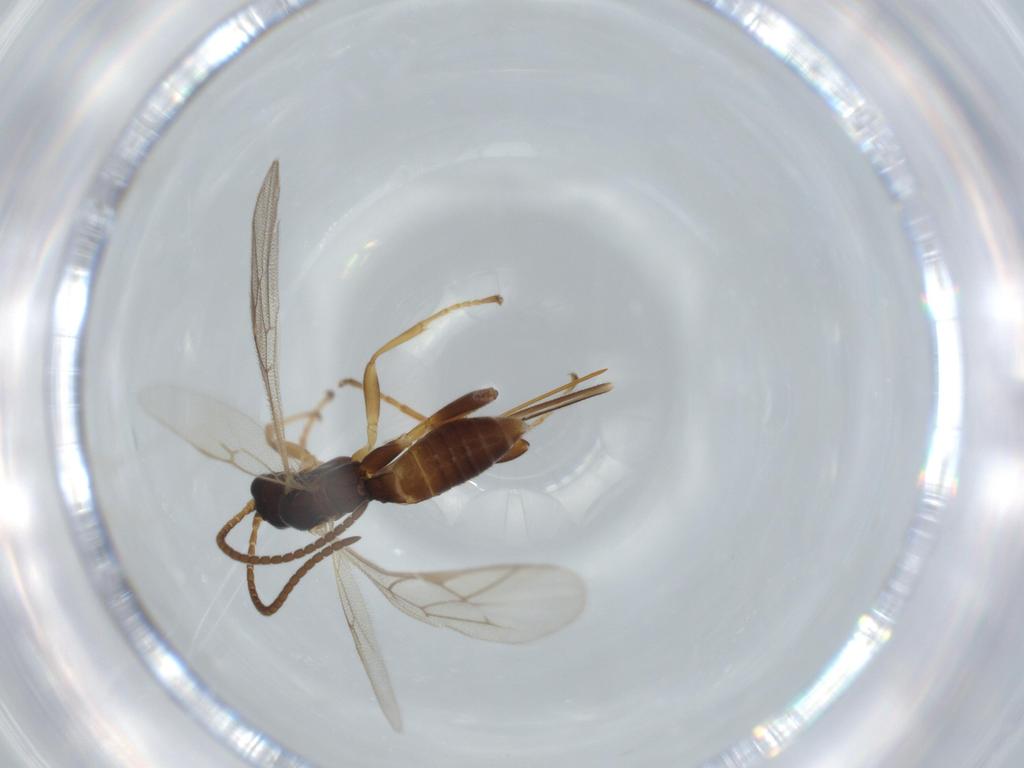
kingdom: Animalia
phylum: Arthropoda
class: Insecta
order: Hymenoptera
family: Ichneumonidae
